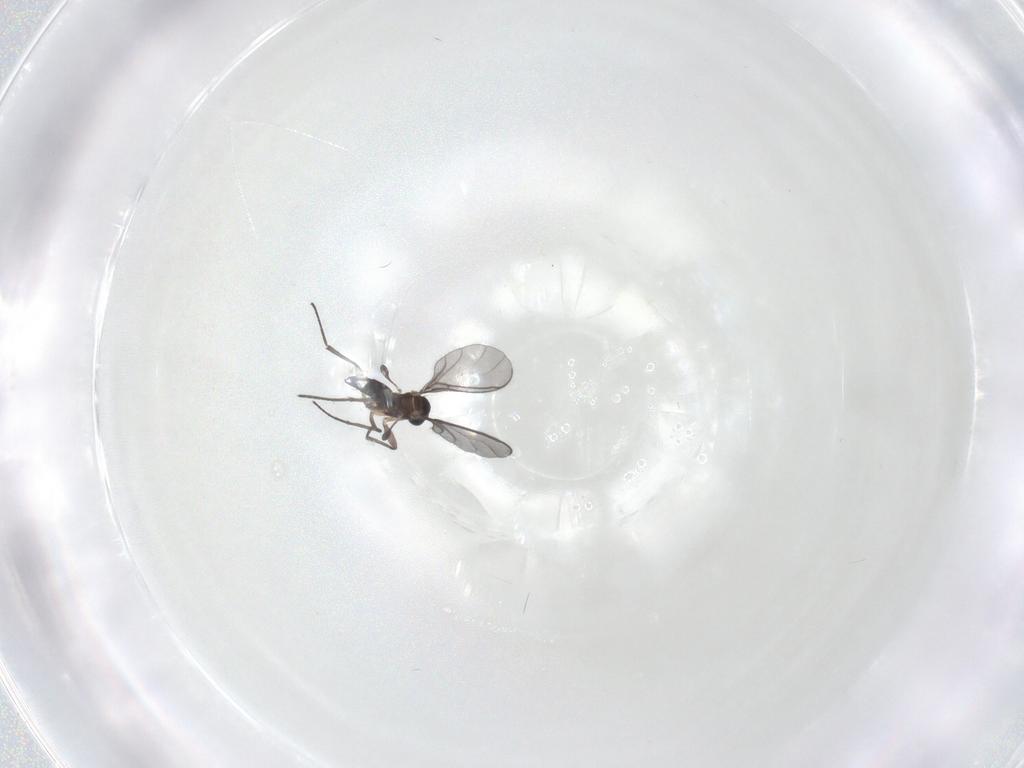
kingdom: Animalia
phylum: Arthropoda
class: Insecta
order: Diptera
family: Sciaridae
